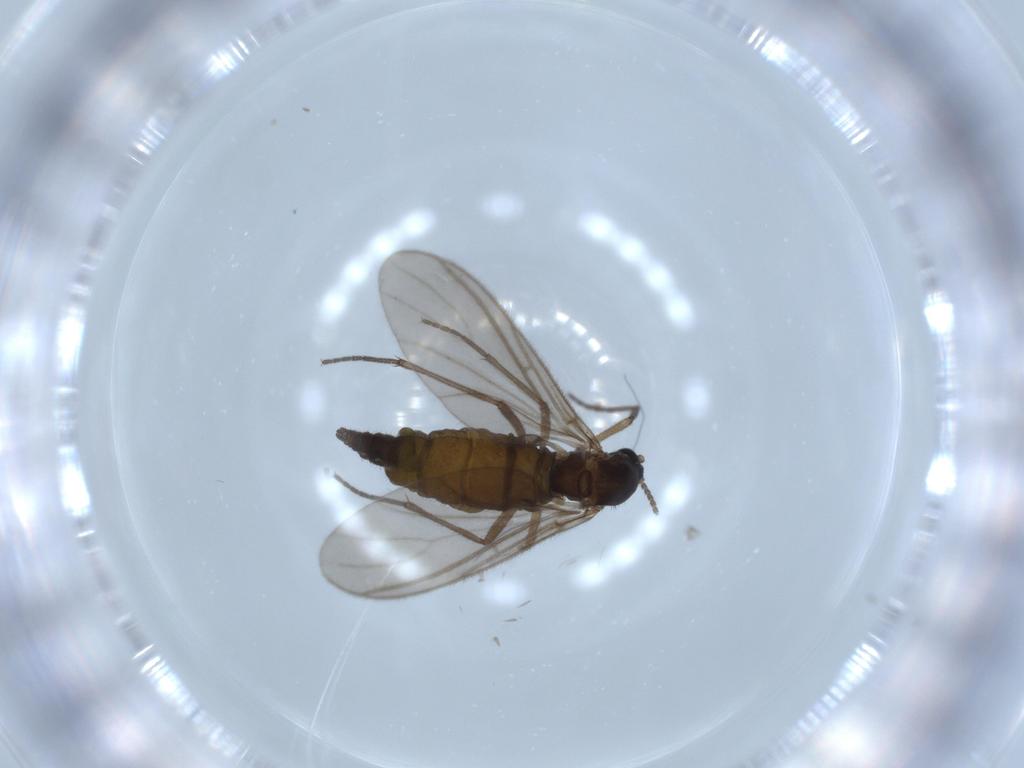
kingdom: Animalia
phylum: Arthropoda
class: Insecta
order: Diptera
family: Sciaridae
